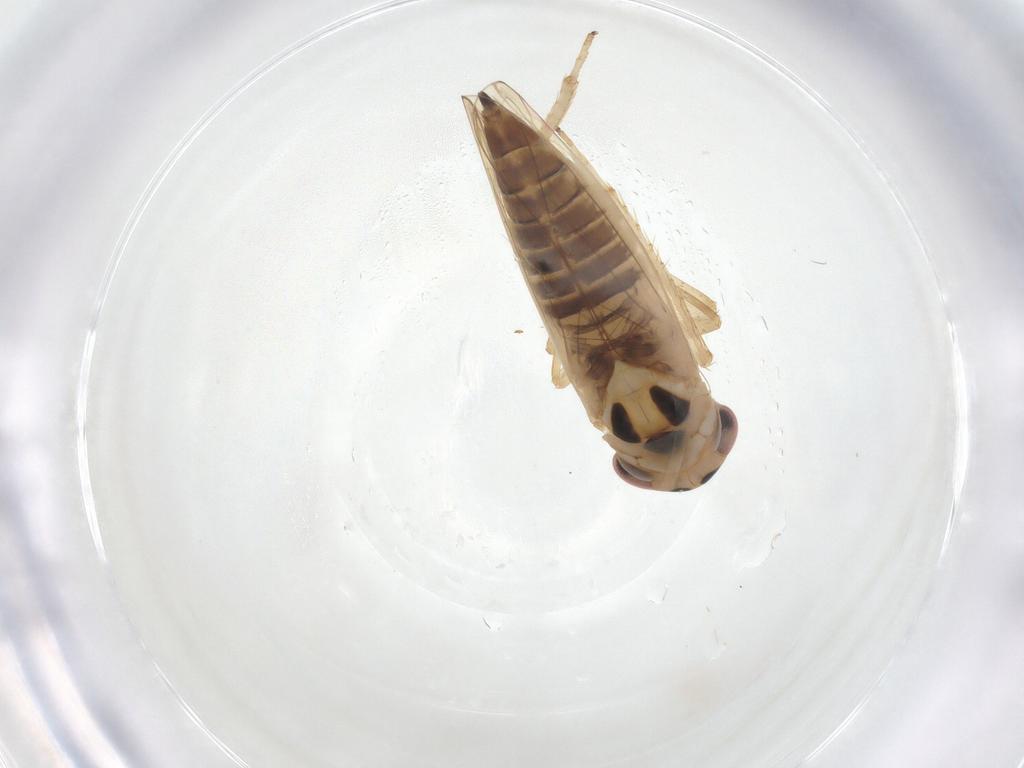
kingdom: Animalia
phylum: Arthropoda
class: Insecta
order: Hemiptera
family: Cicadellidae
